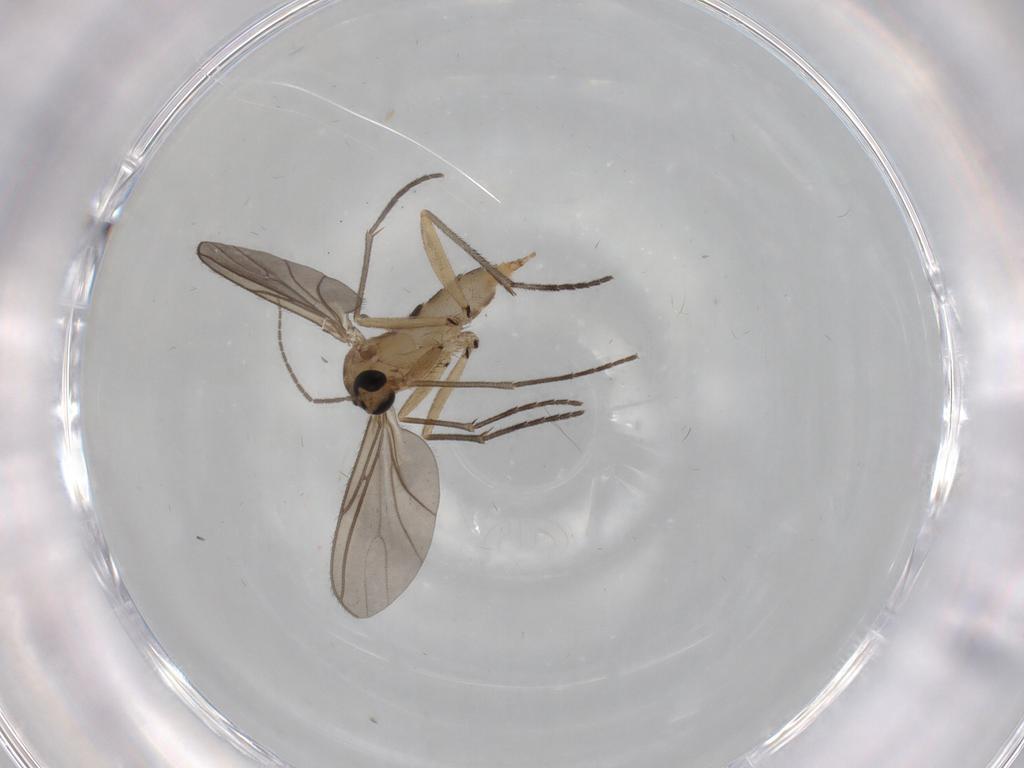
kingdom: Animalia
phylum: Arthropoda
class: Insecta
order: Diptera
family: Sciaridae
